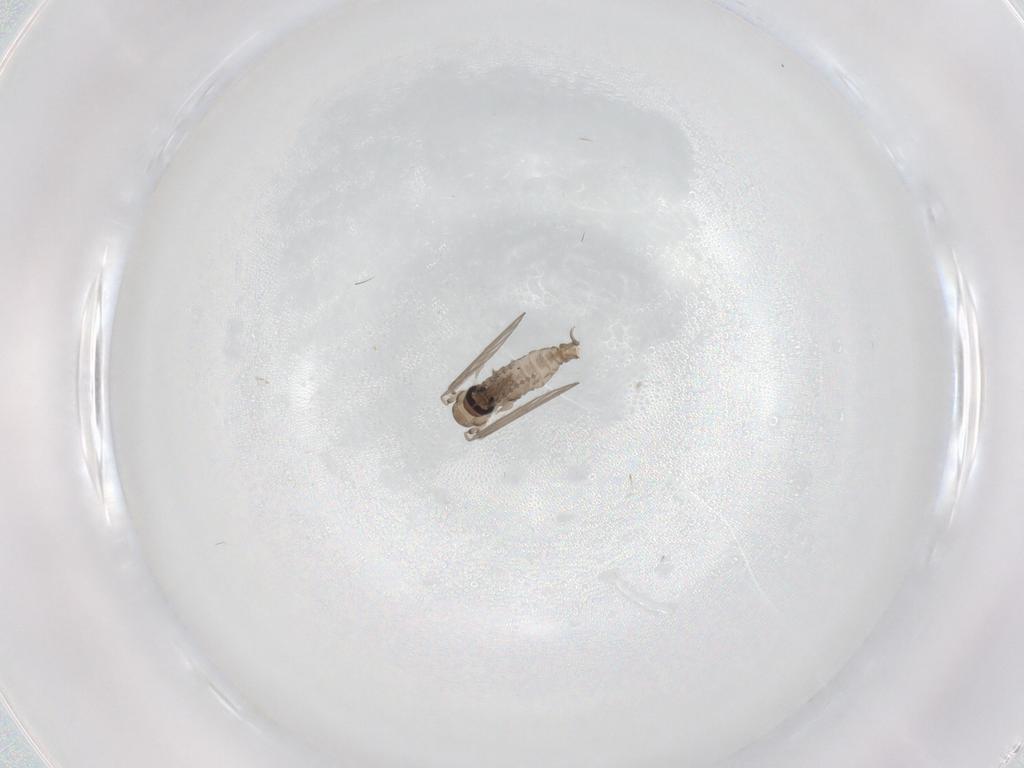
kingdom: Animalia
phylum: Arthropoda
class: Insecta
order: Diptera
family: Psychodidae
